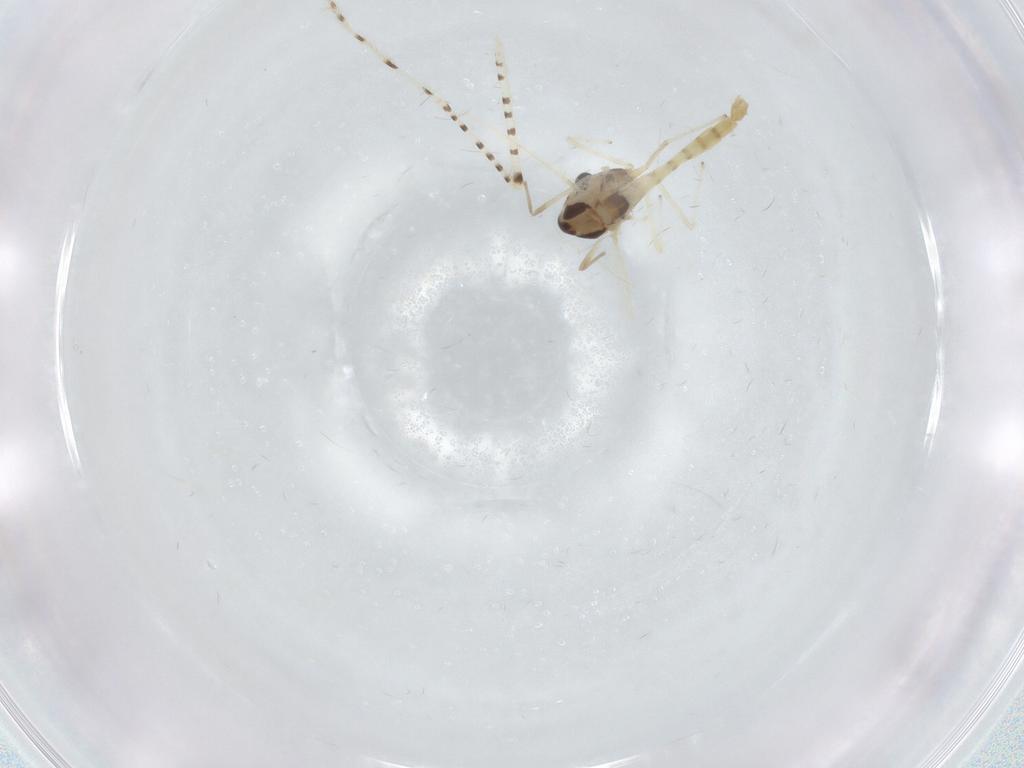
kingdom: Animalia
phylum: Arthropoda
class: Insecta
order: Diptera
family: Chironomidae
